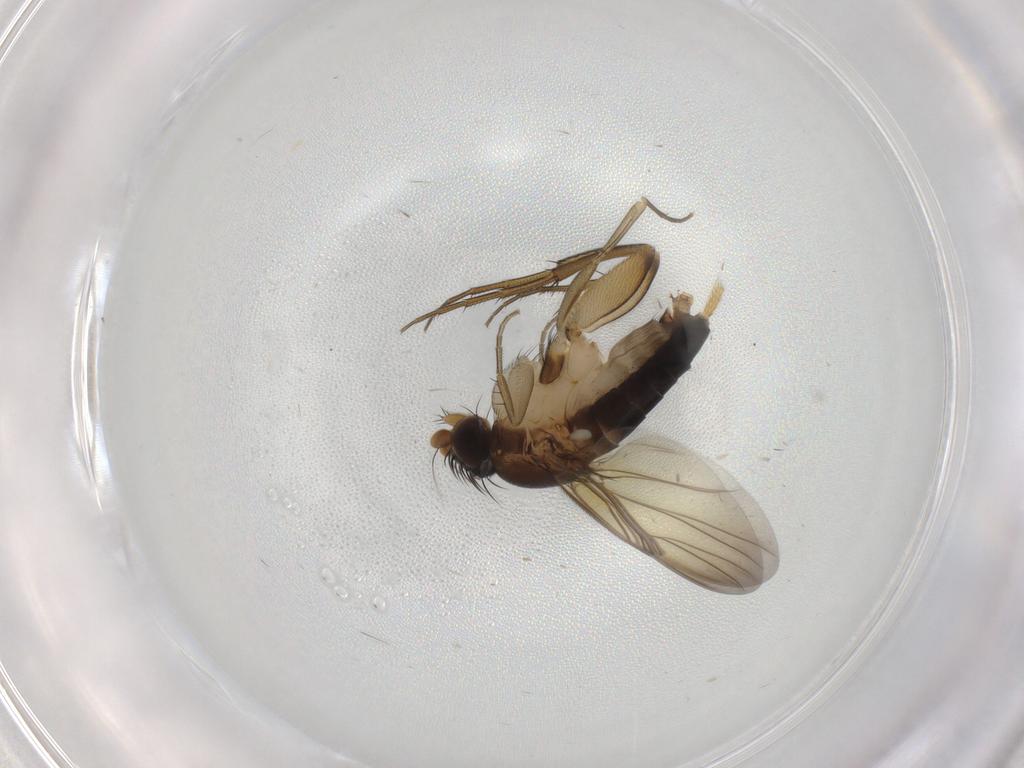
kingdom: Animalia
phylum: Arthropoda
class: Insecta
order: Diptera
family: Phoridae
